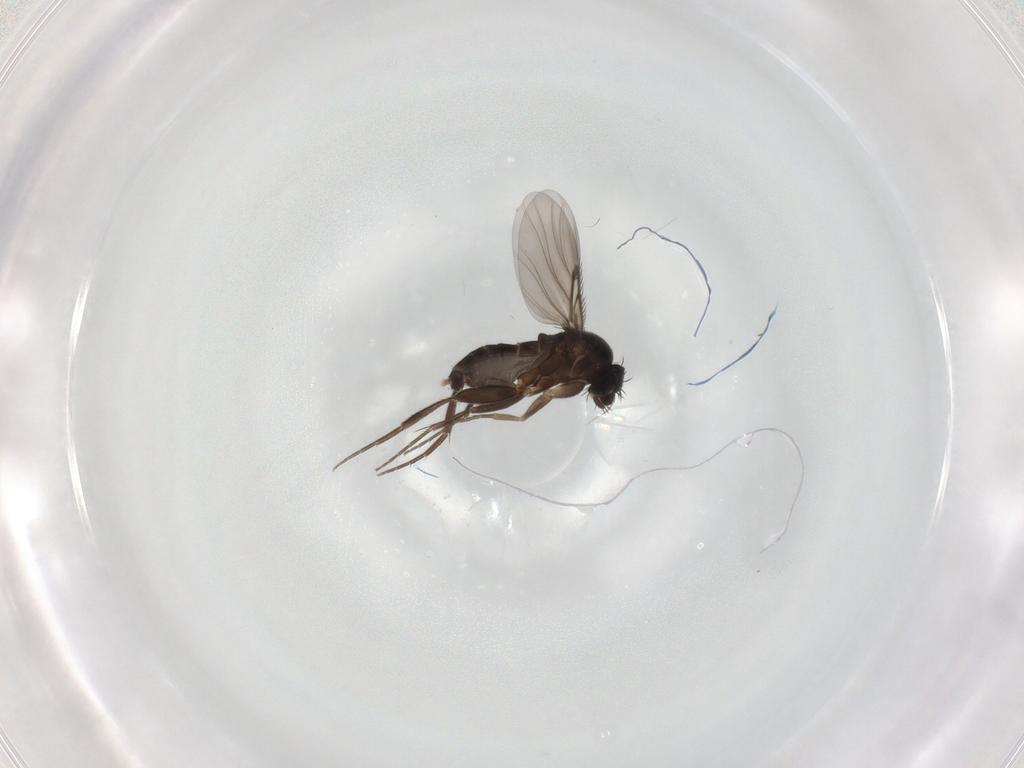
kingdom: Animalia
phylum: Arthropoda
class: Insecta
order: Diptera
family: Phoridae
